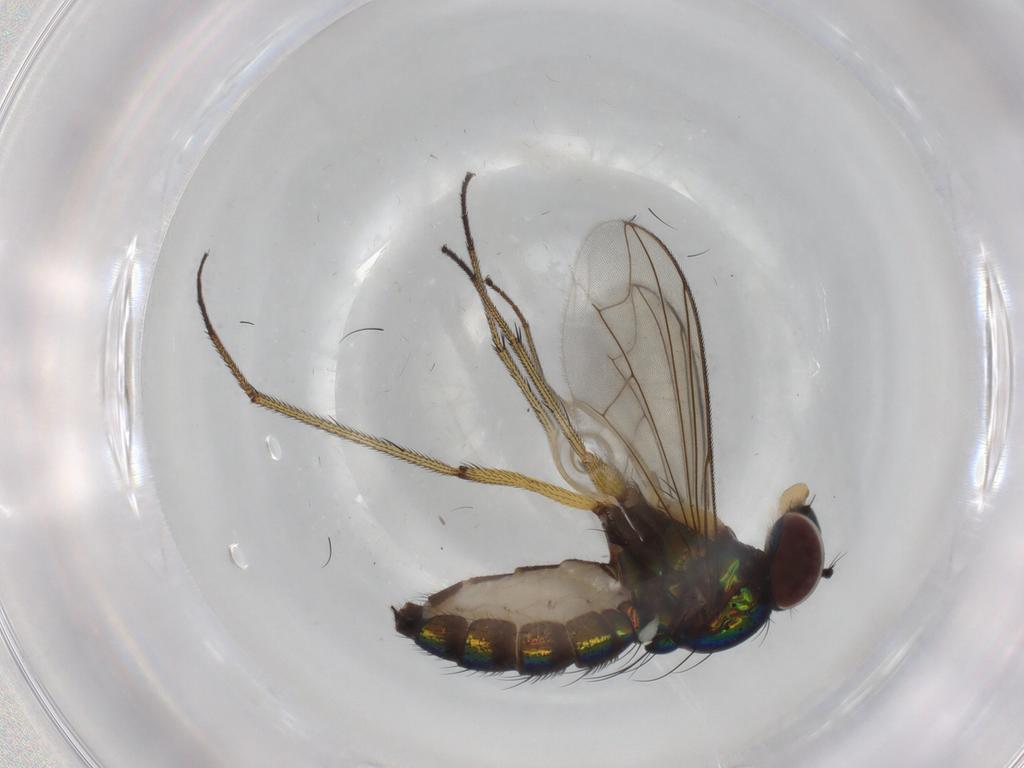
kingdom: Animalia
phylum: Arthropoda
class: Insecta
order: Diptera
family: Dolichopodidae
